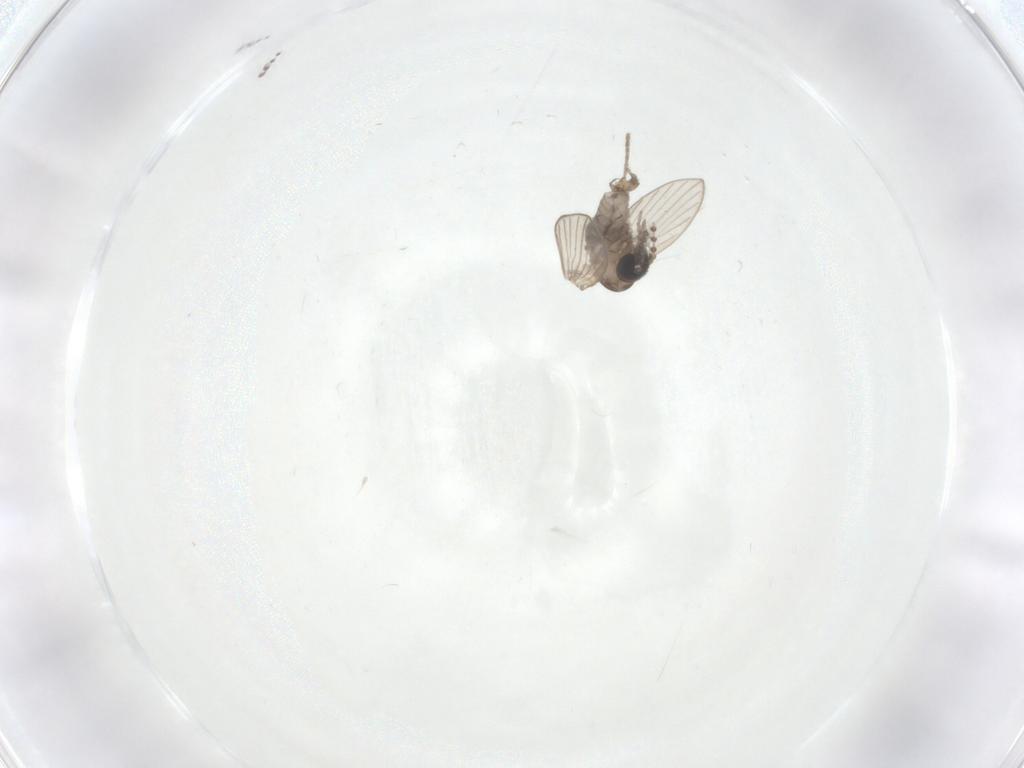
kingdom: Animalia
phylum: Arthropoda
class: Insecta
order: Diptera
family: Psychodidae
